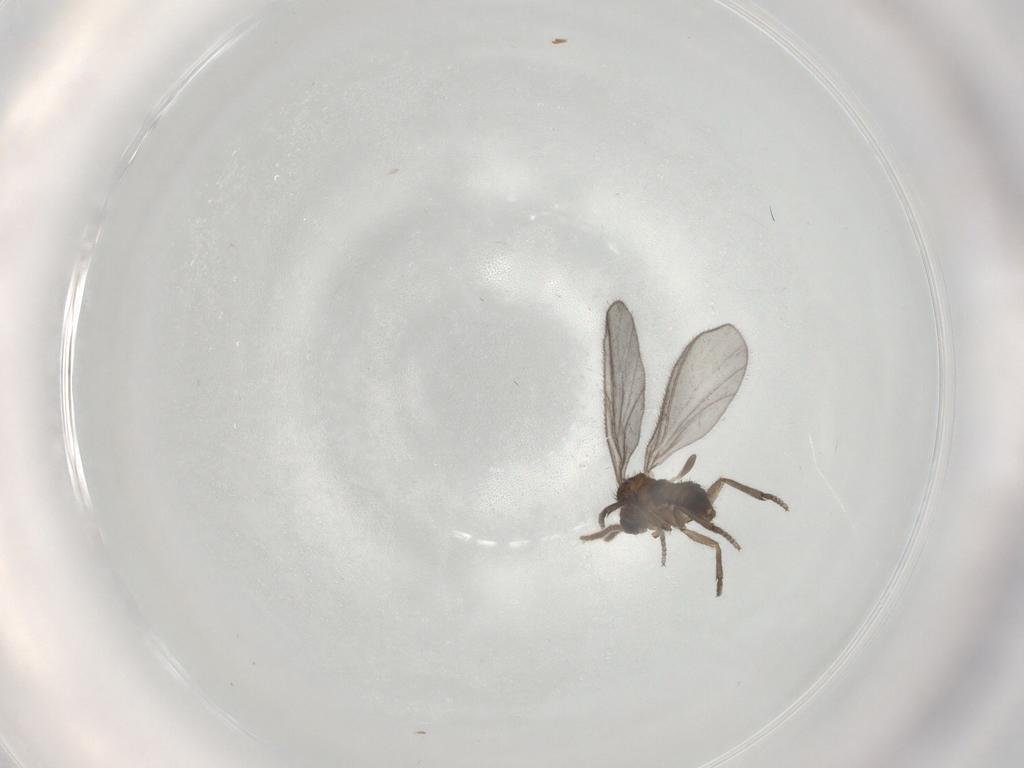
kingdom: Animalia
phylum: Arthropoda
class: Insecta
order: Diptera
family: Sciaridae
